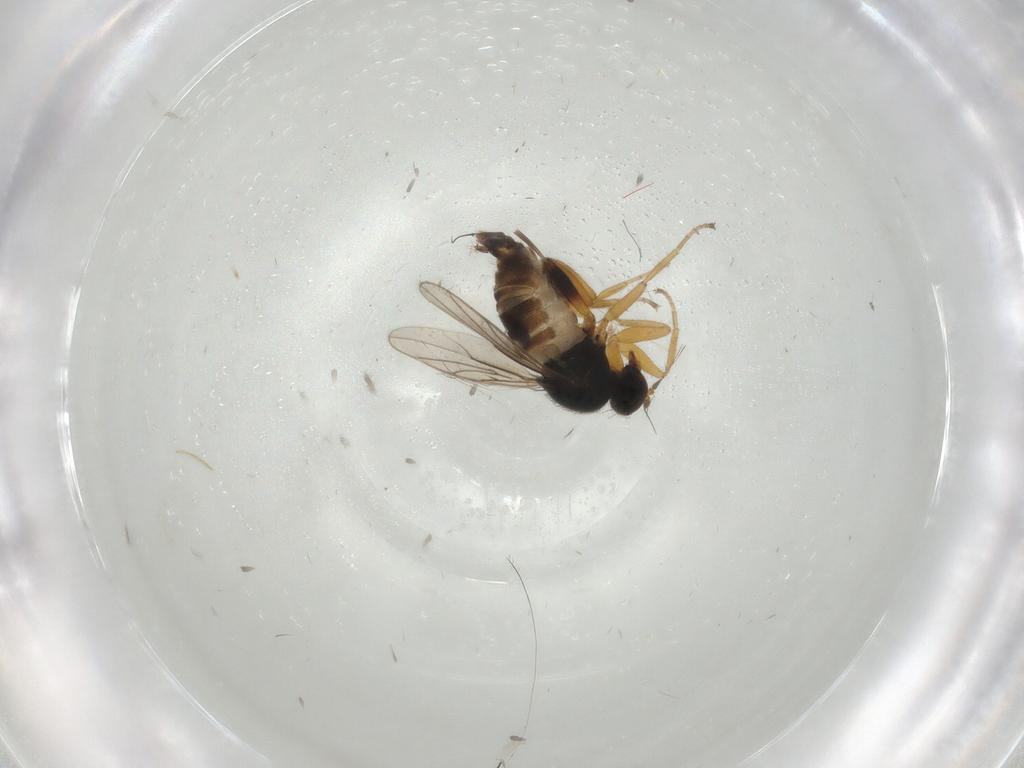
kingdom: Animalia
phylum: Arthropoda
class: Insecta
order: Diptera
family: Hybotidae
